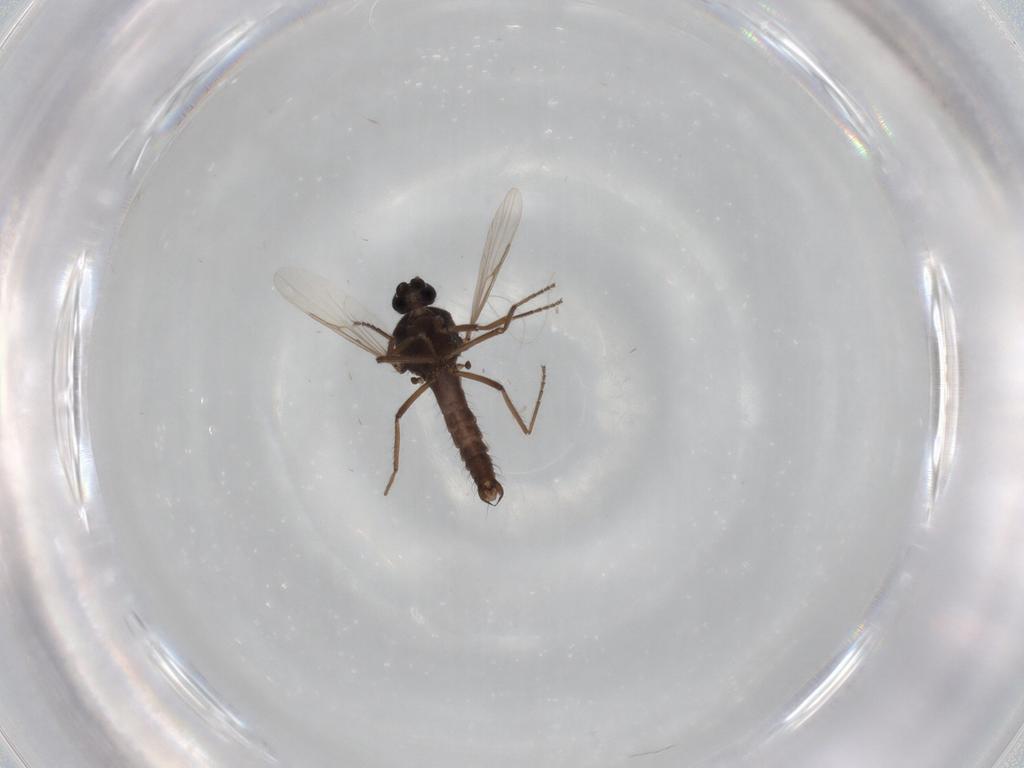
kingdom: Animalia
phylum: Arthropoda
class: Insecta
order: Diptera
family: Ceratopogonidae
